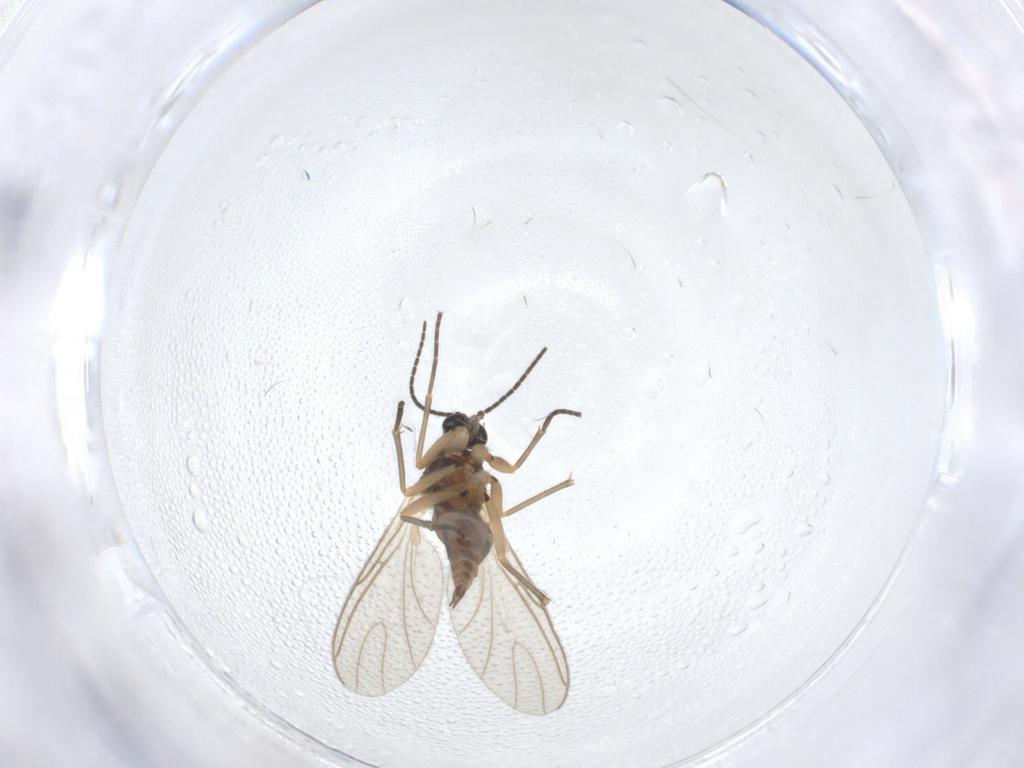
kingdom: Animalia
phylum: Arthropoda
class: Insecta
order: Diptera
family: Sciaridae
